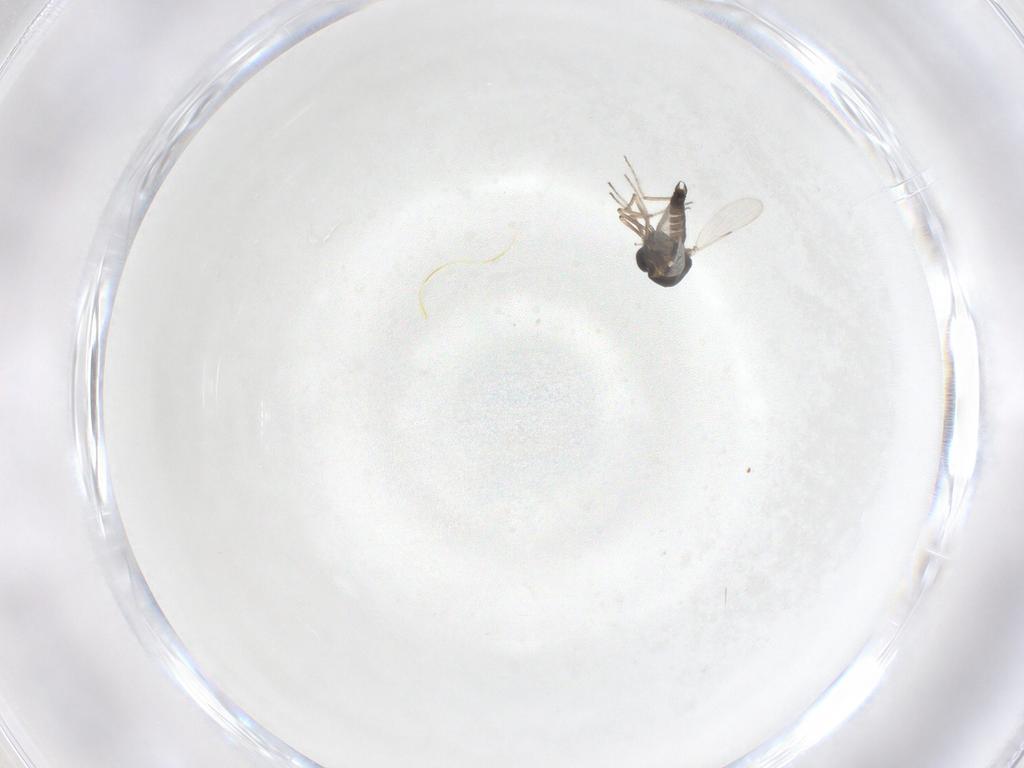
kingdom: Animalia
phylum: Arthropoda
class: Insecta
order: Diptera
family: Ceratopogonidae
